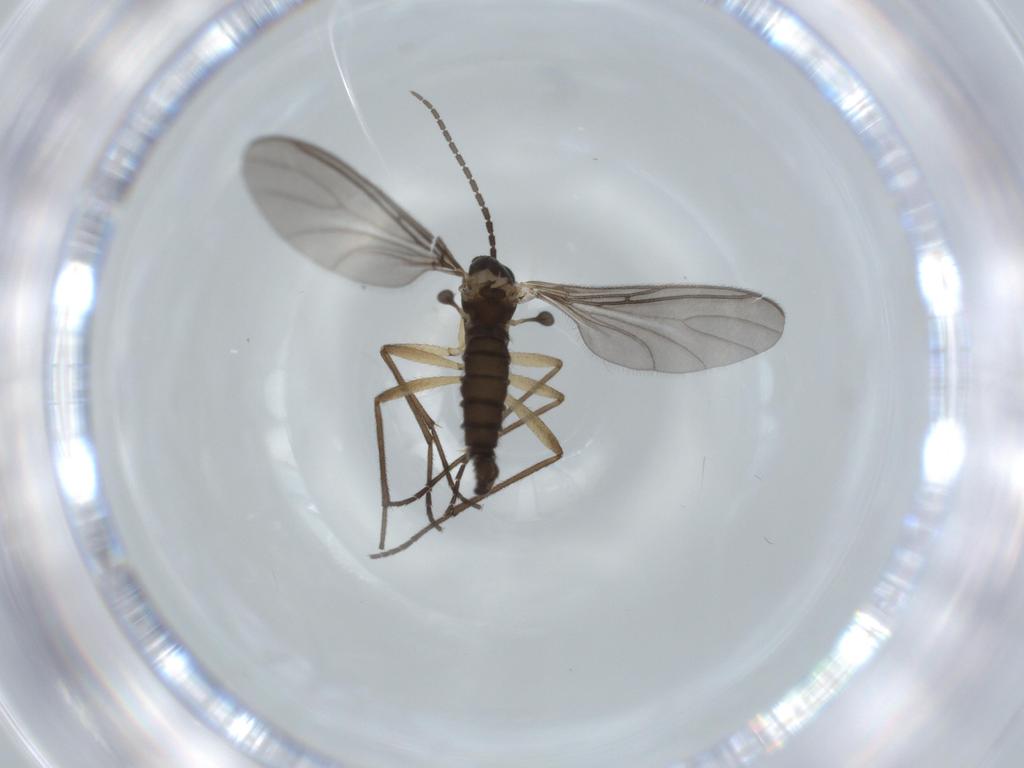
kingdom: Animalia
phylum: Arthropoda
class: Insecta
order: Diptera
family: Sciaridae
